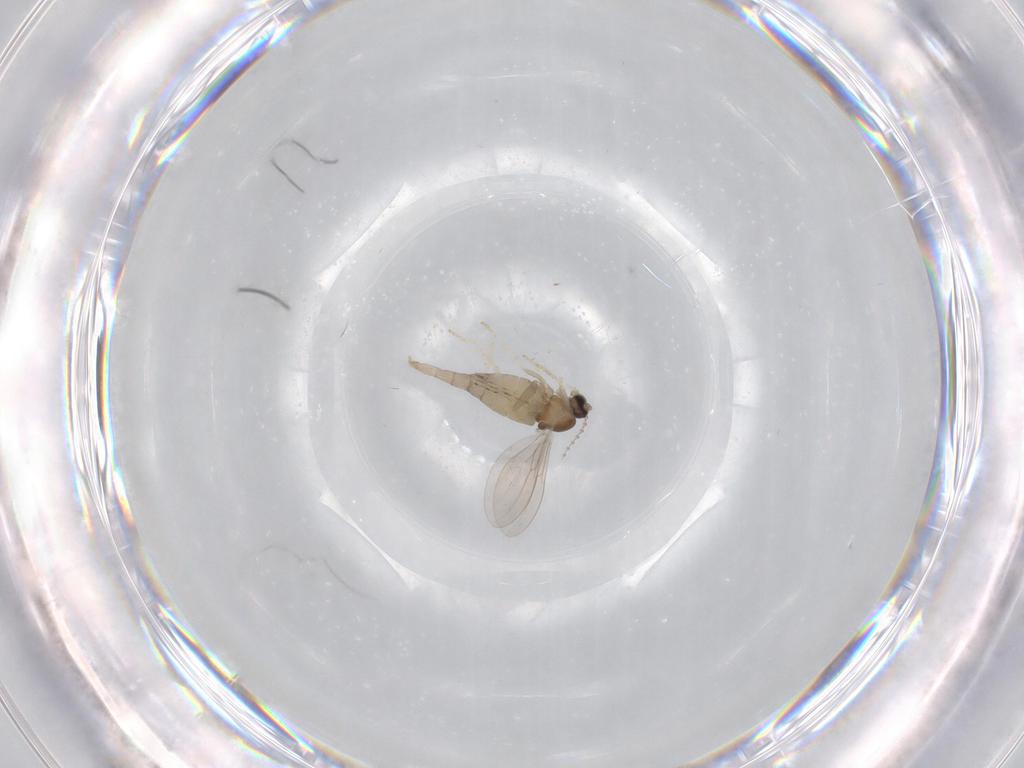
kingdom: Animalia
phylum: Arthropoda
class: Insecta
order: Diptera
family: Cecidomyiidae
